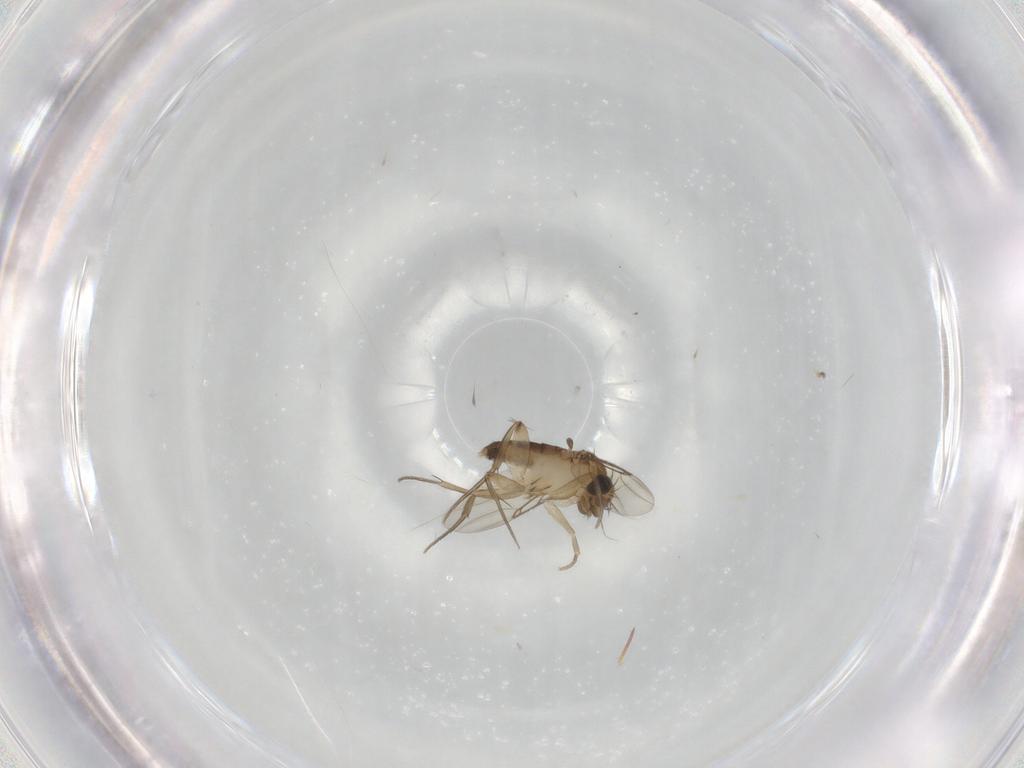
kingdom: Animalia
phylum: Arthropoda
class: Insecta
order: Diptera
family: Phoridae
